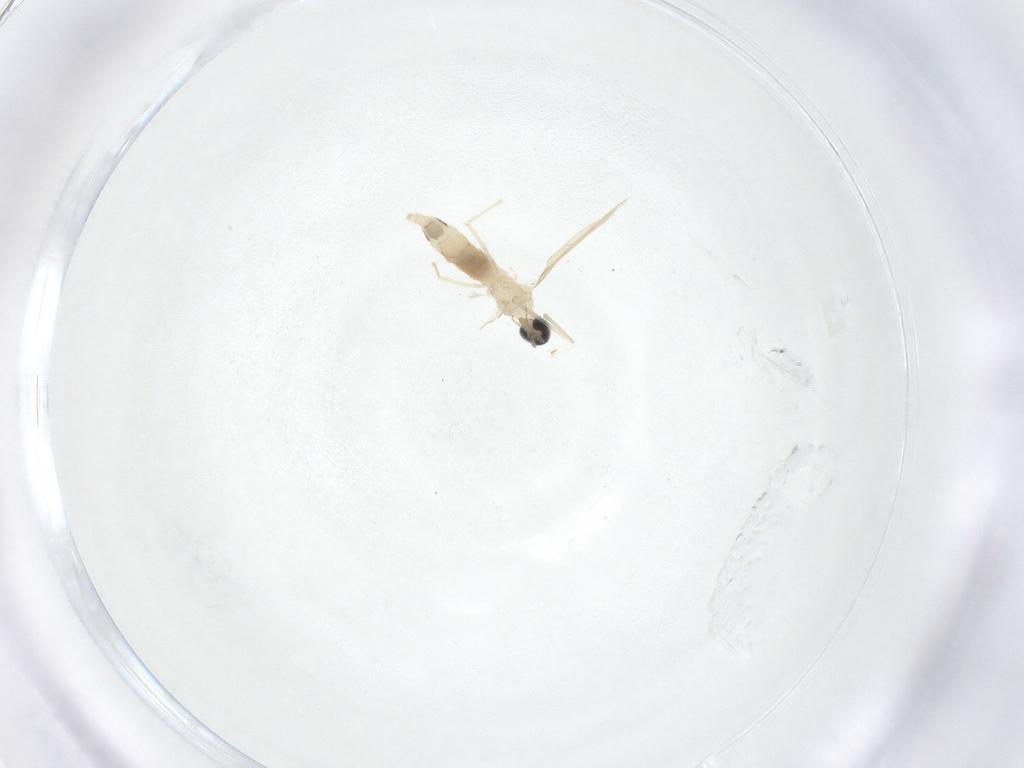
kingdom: Animalia
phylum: Arthropoda
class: Insecta
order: Diptera
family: Cecidomyiidae
